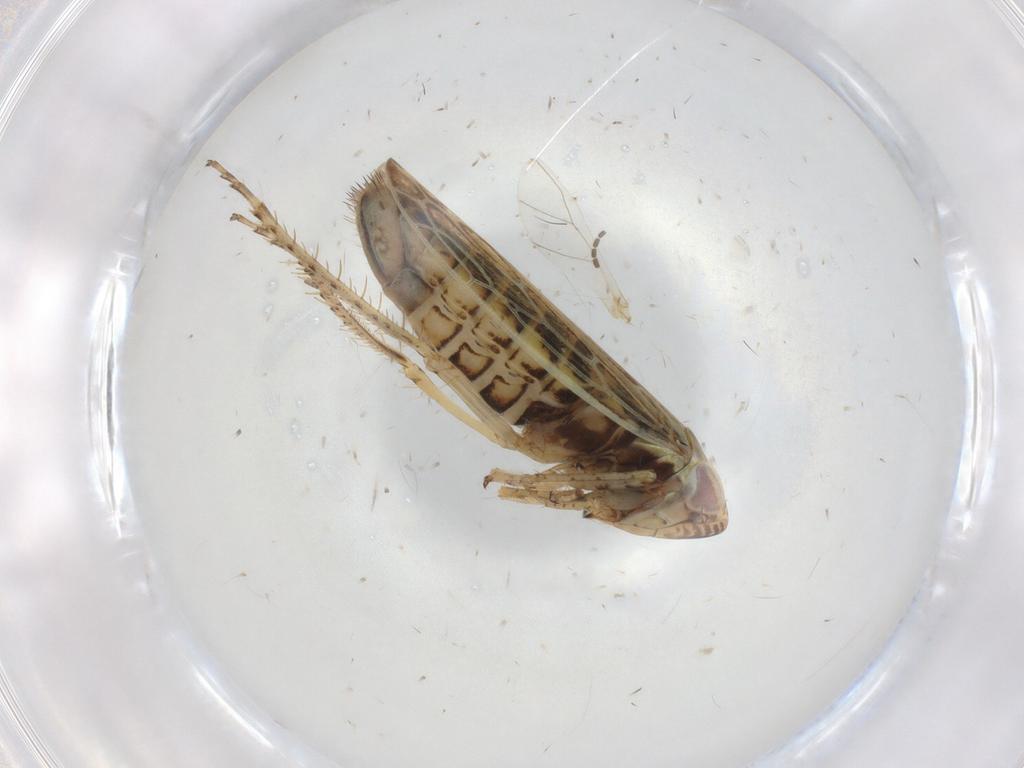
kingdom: Animalia
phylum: Arthropoda
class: Insecta
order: Hemiptera
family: Cicadellidae
